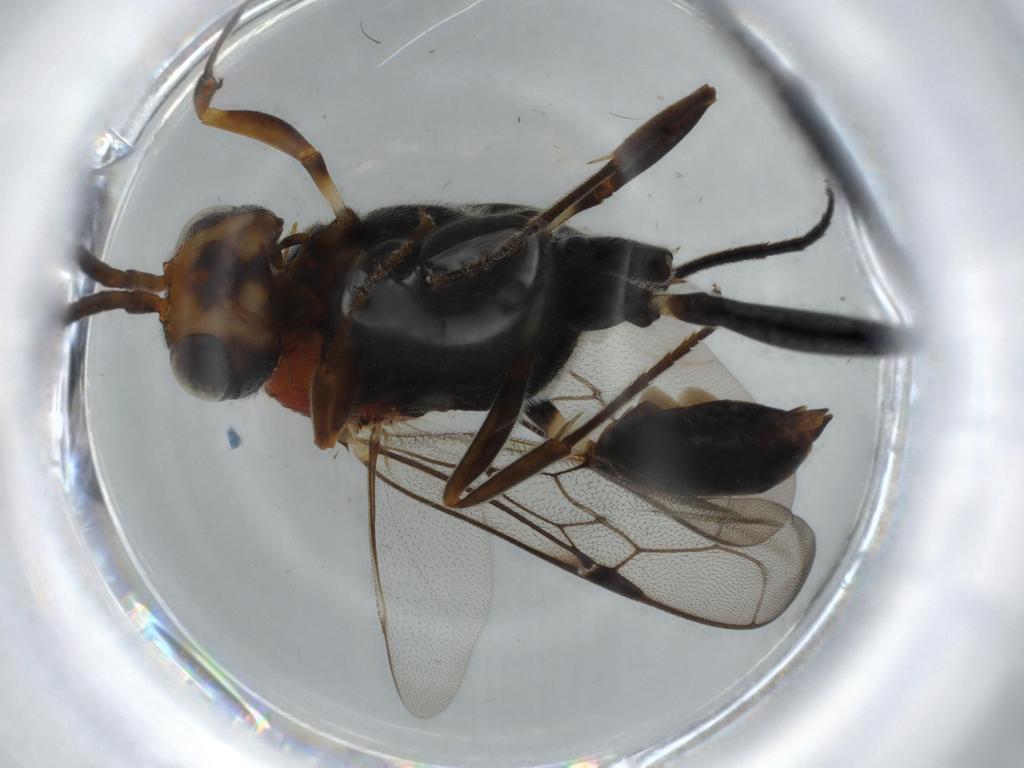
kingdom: Animalia
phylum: Arthropoda
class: Insecta
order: Hymenoptera
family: Evaniidae
